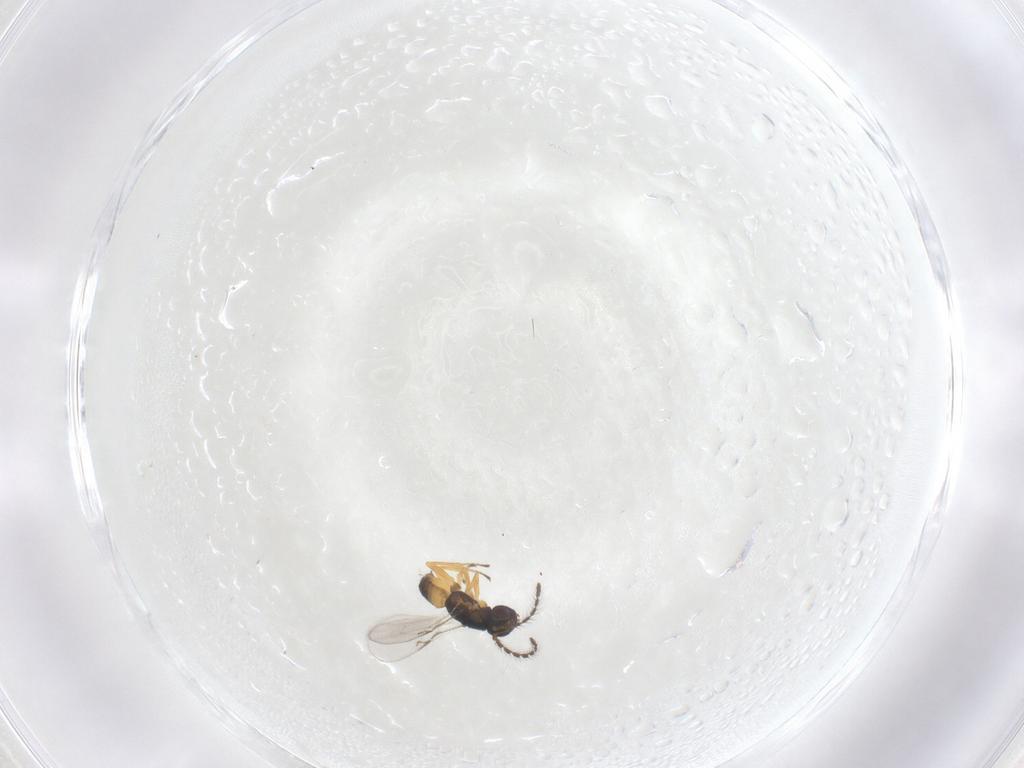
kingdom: Animalia
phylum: Arthropoda
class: Insecta
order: Hymenoptera
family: Encyrtidae
